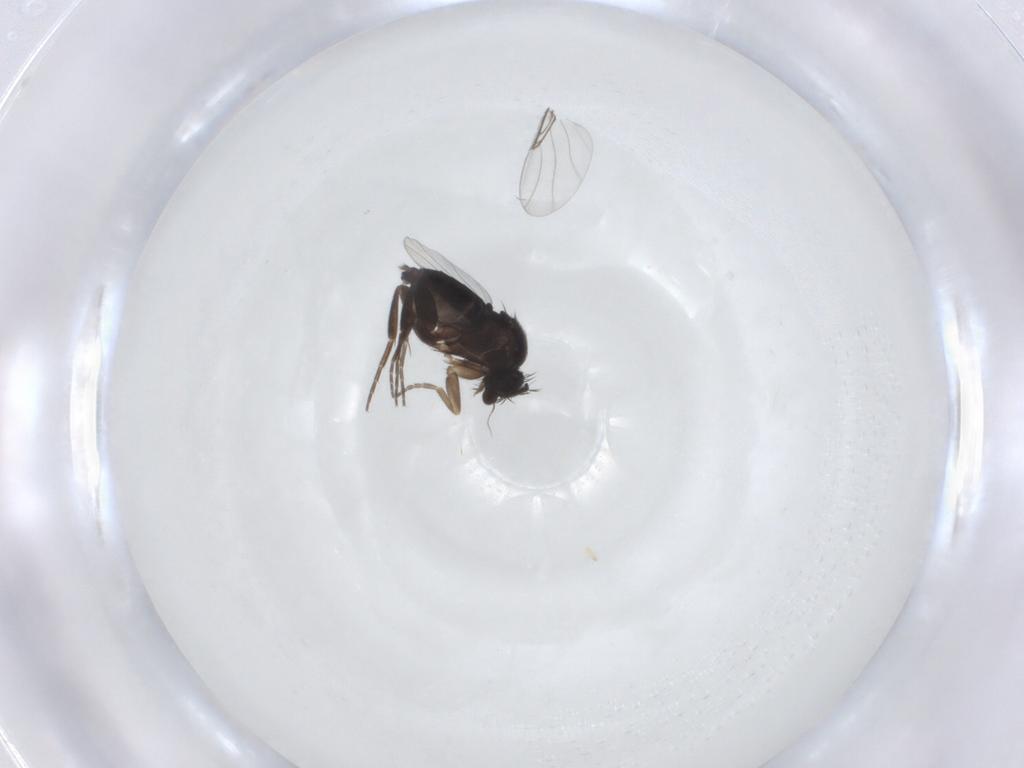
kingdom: Animalia
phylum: Arthropoda
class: Insecta
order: Diptera
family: Phoridae
